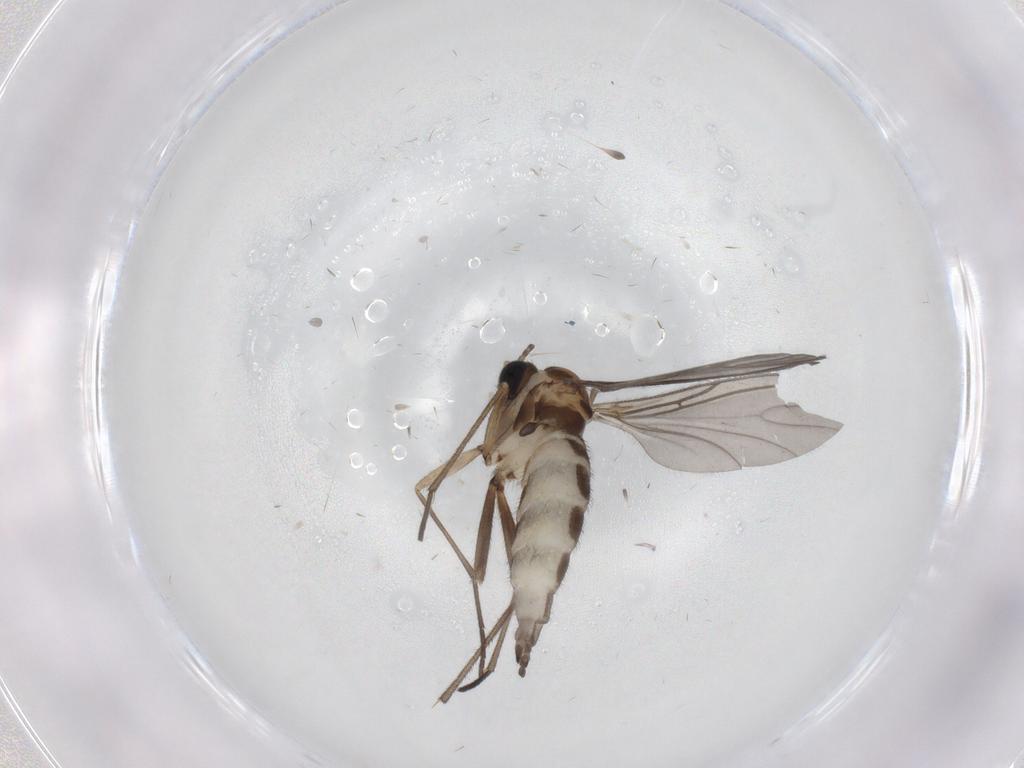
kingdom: Animalia
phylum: Arthropoda
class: Insecta
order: Diptera
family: Sciaridae
